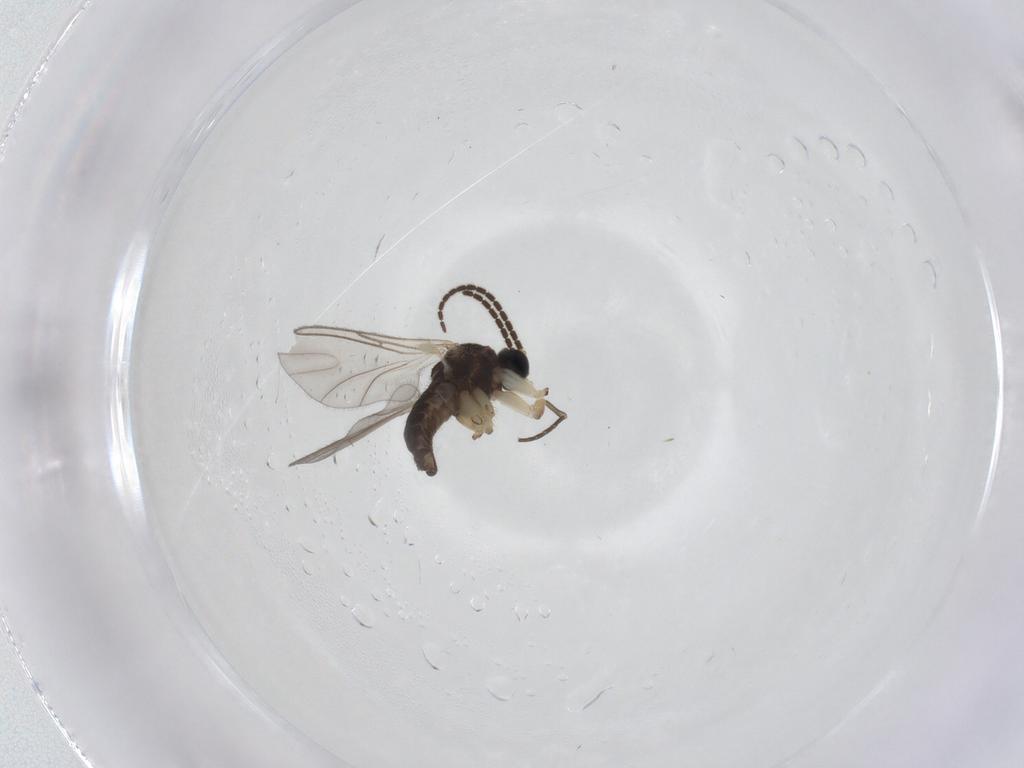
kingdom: Animalia
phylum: Arthropoda
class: Insecta
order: Diptera
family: Sciaridae
